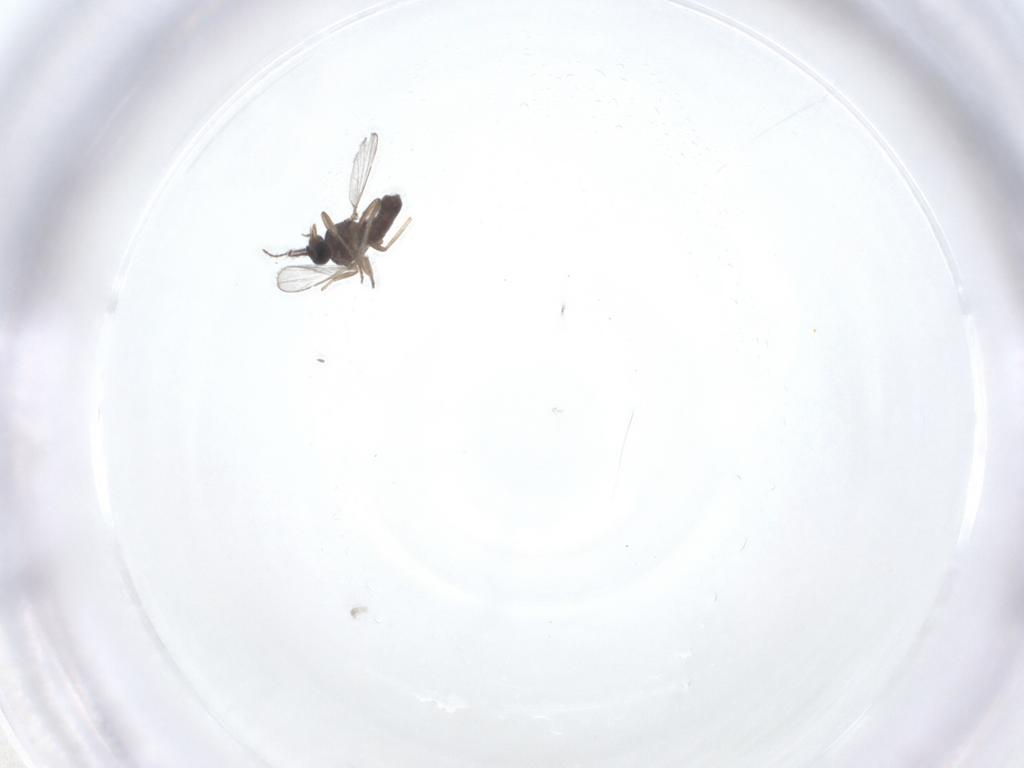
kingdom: Animalia
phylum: Arthropoda
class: Insecta
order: Diptera
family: Ceratopogonidae
